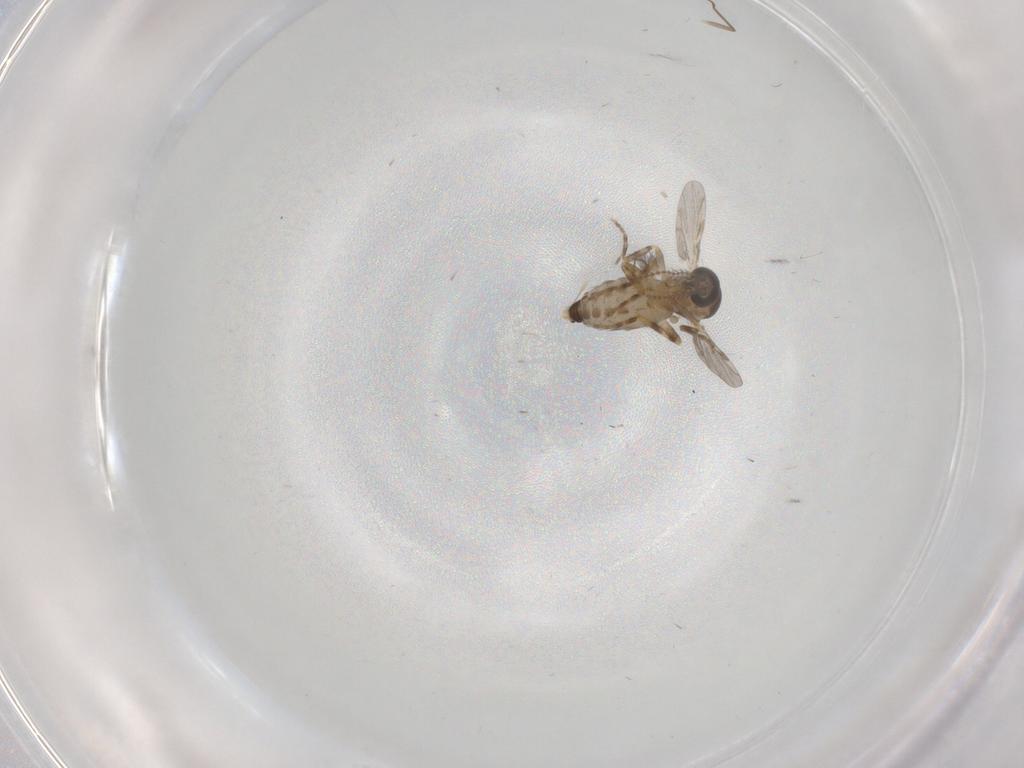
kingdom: Animalia
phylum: Arthropoda
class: Insecta
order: Diptera
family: Ceratopogonidae
